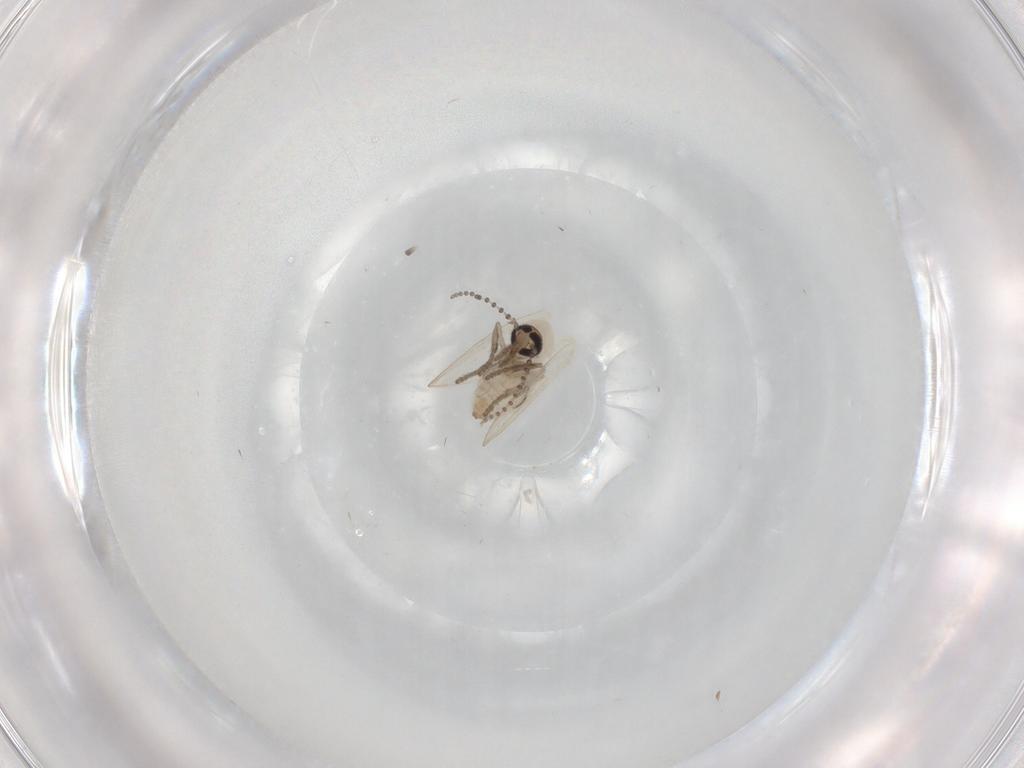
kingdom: Animalia
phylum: Arthropoda
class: Insecta
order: Diptera
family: Psychodidae
